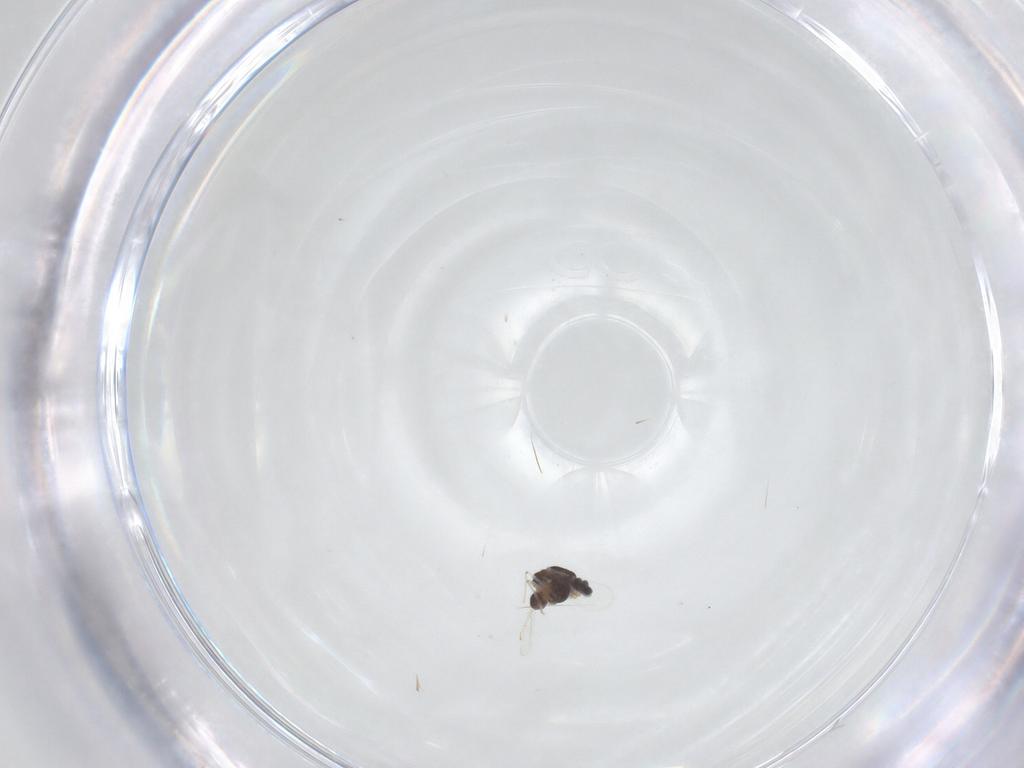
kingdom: Animalia
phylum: Arthropoda
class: Insecta
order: Diptera
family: Chironomidae
